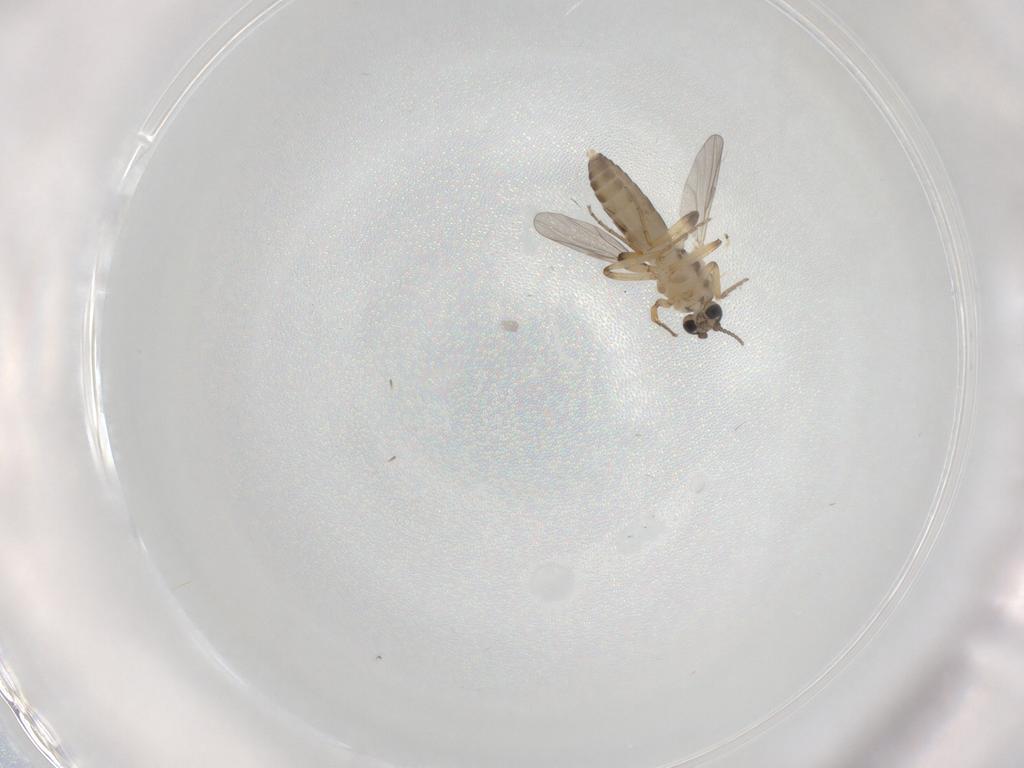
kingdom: Animalia
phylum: Arthropoda
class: Insecta
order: Diptera
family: Ceratopogonidae
